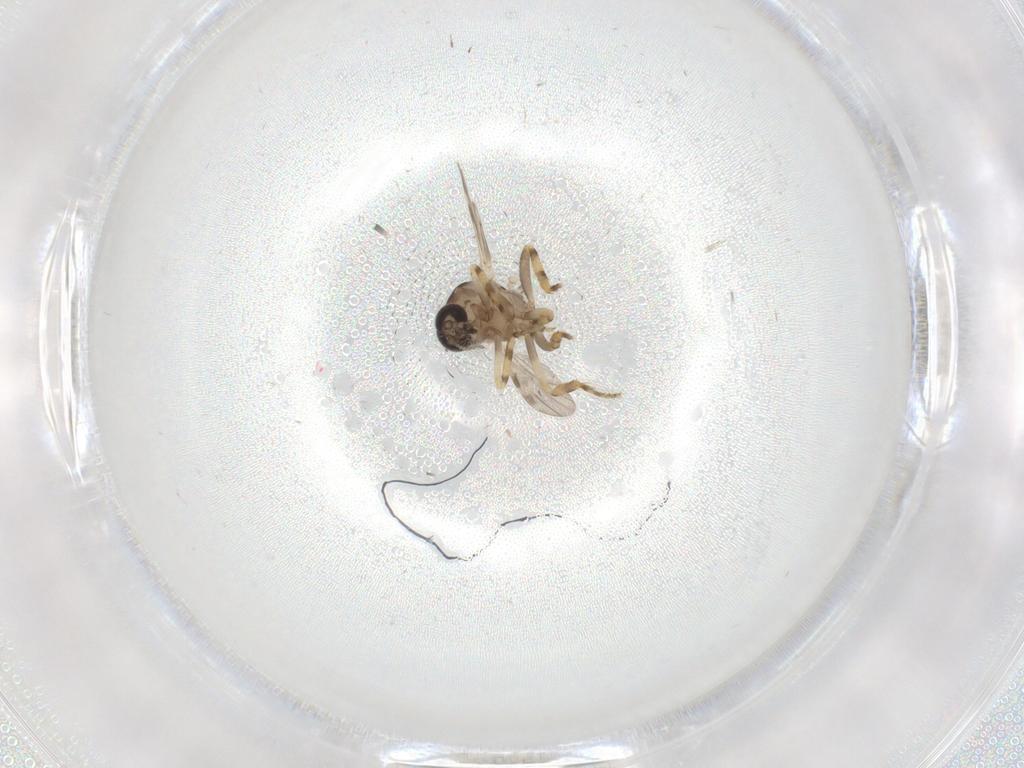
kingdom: Animalia
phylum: Arthropoda
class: Insecta
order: Diptera
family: Cecidomyiidae
